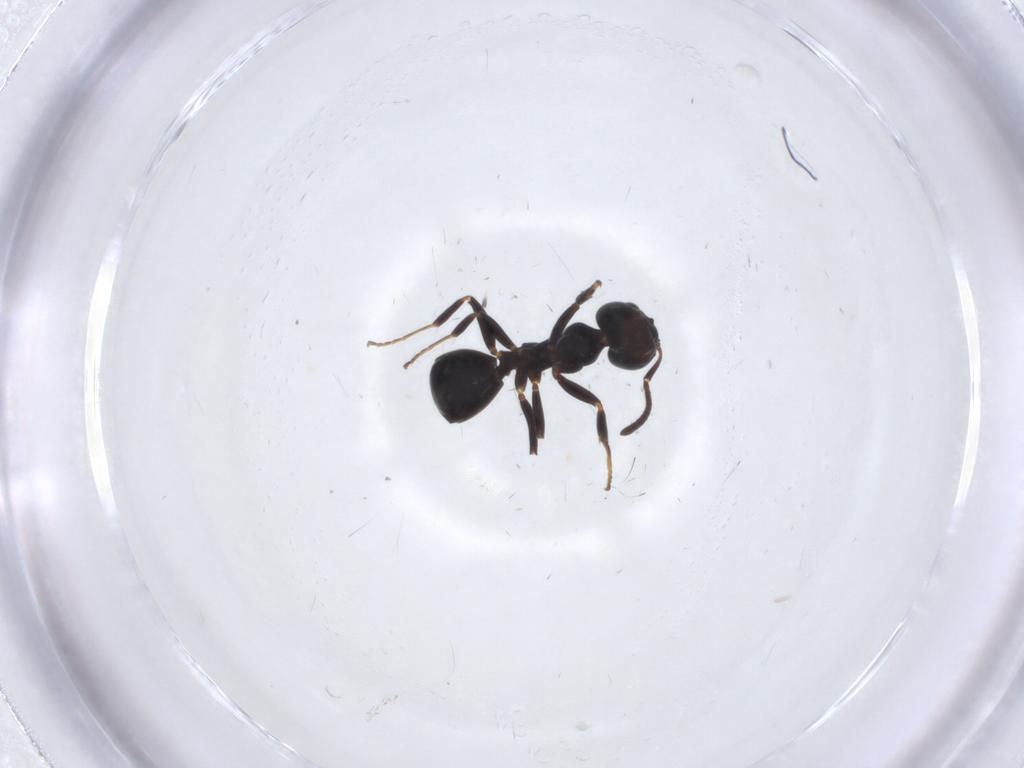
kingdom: Animalia
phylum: Arthropoda
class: Insecta
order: Hymenoptera
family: Formicidae
